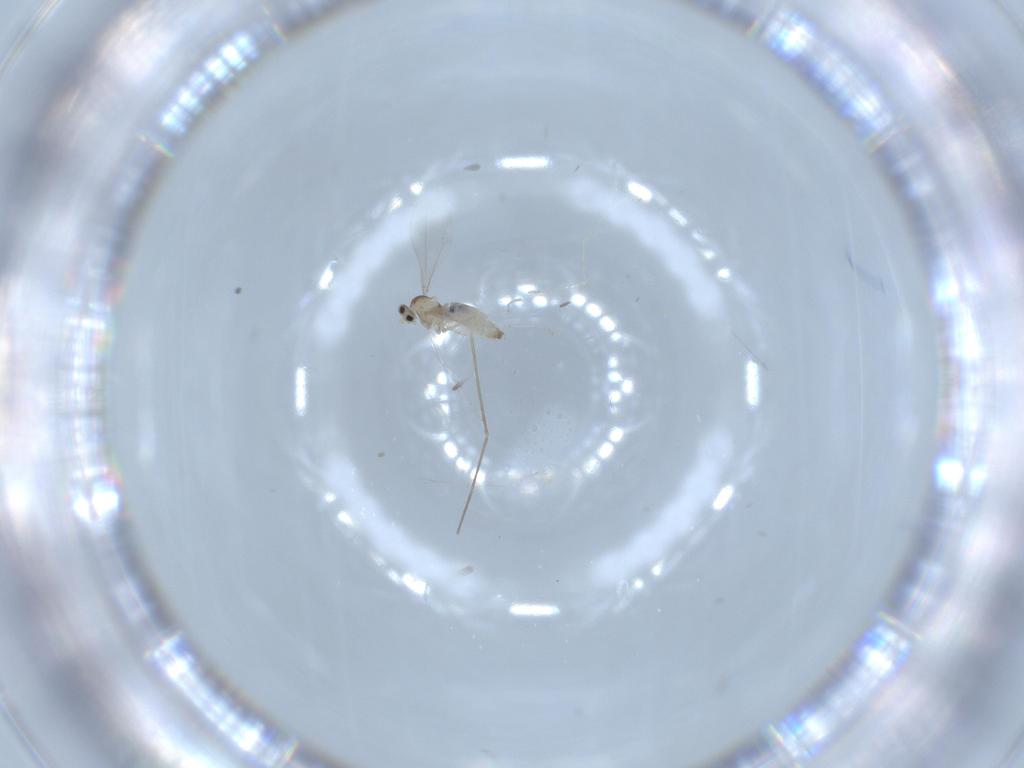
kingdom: Animalia
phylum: Arthropoda
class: Insecta
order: Diptera
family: Cecidomyiidae
